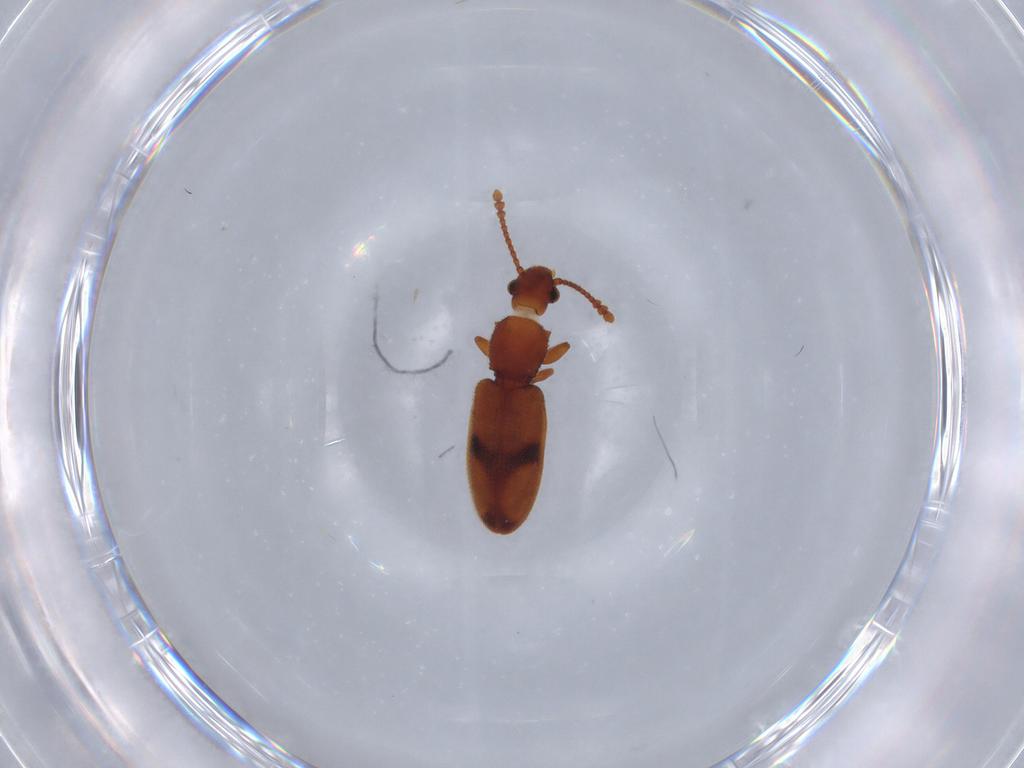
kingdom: Animalia
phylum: Arthropoda
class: Insecta
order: Coleoptera
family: Silvanidae
